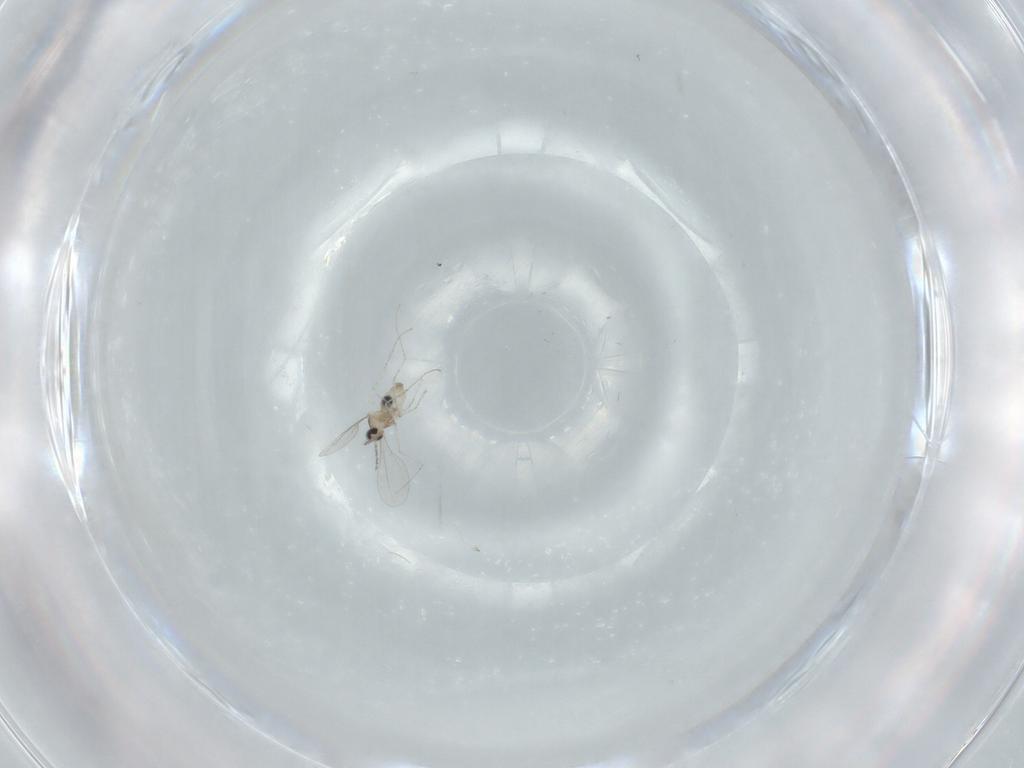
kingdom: Animalia
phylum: Arthropoda
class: Insecta
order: Diptera
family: Cecidomyiidae
